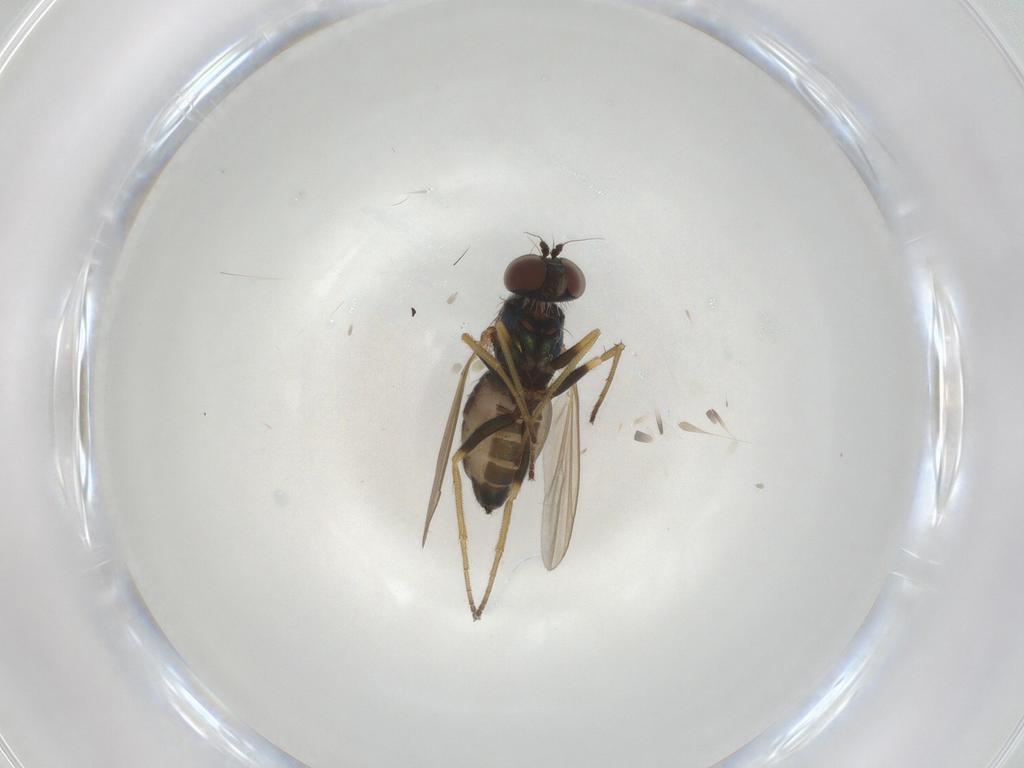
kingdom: Animalia
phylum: Arthropoda
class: Insecta
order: Diptera
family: Dolichopodidae
